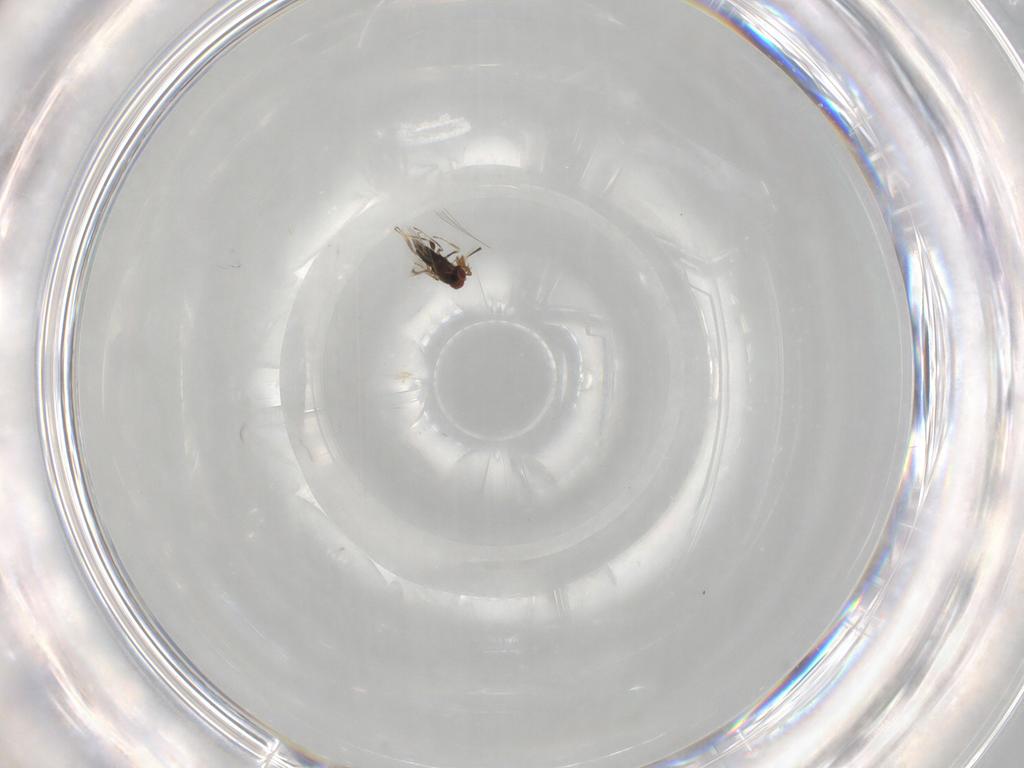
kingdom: Animalia
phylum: Arthropoda
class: Insecta
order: Hymenoptera
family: Agaonidae
